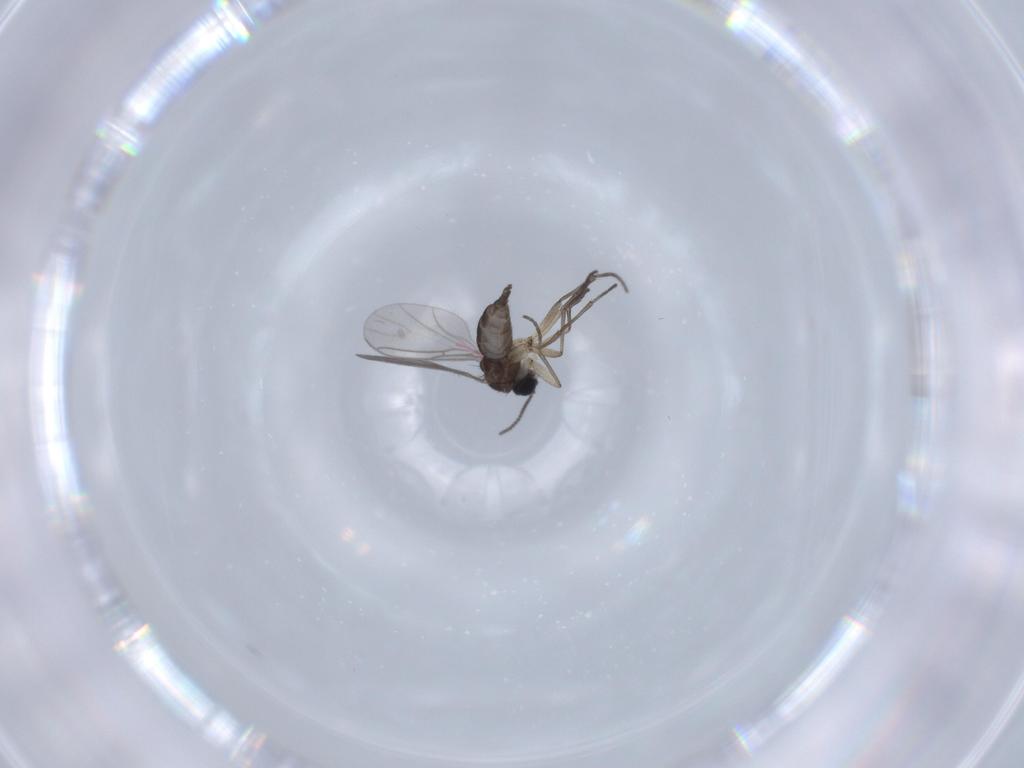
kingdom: Animalia
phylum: Arthropoda
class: Insecta
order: Diptera
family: Sciaridae
